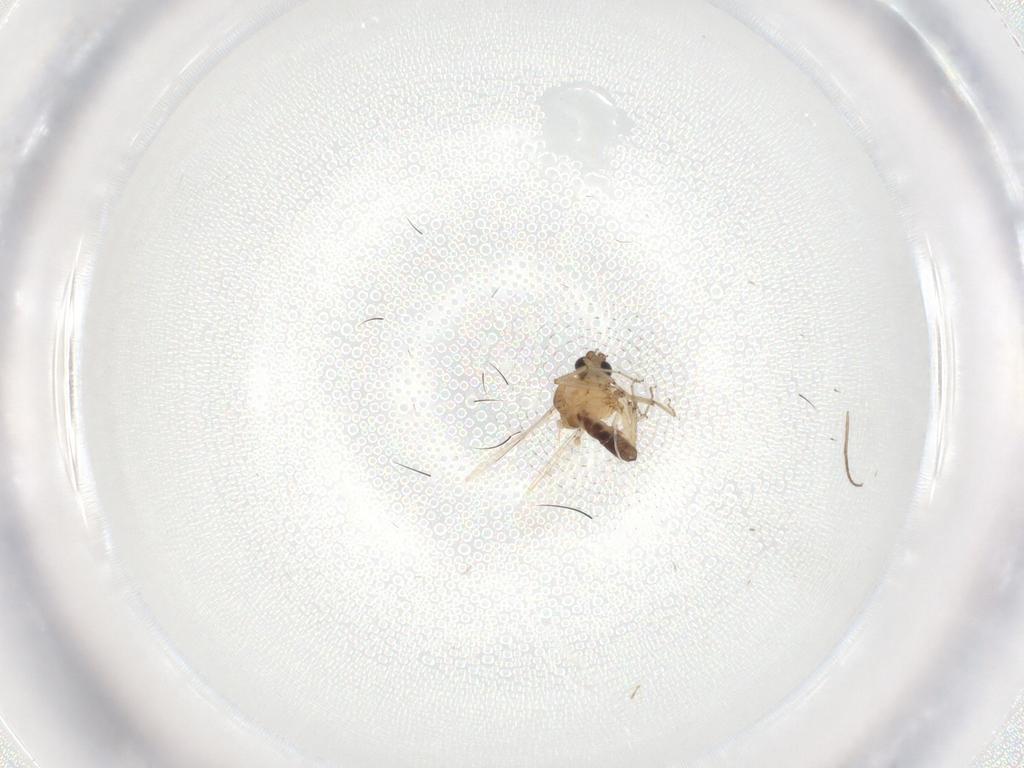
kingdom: Animalia
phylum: Arthropoda
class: Insecta
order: Diptera
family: Ceratopogonidae
